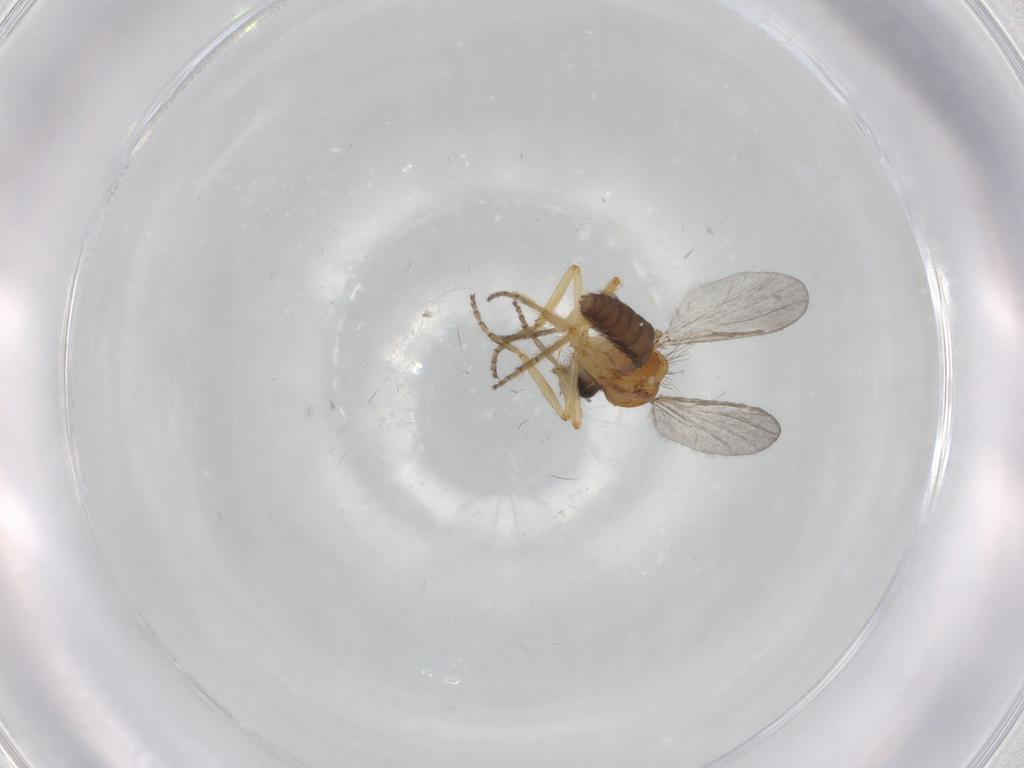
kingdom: Animalia
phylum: Arthropoda
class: Insecta
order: Diptera
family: Ceratopogonidae
